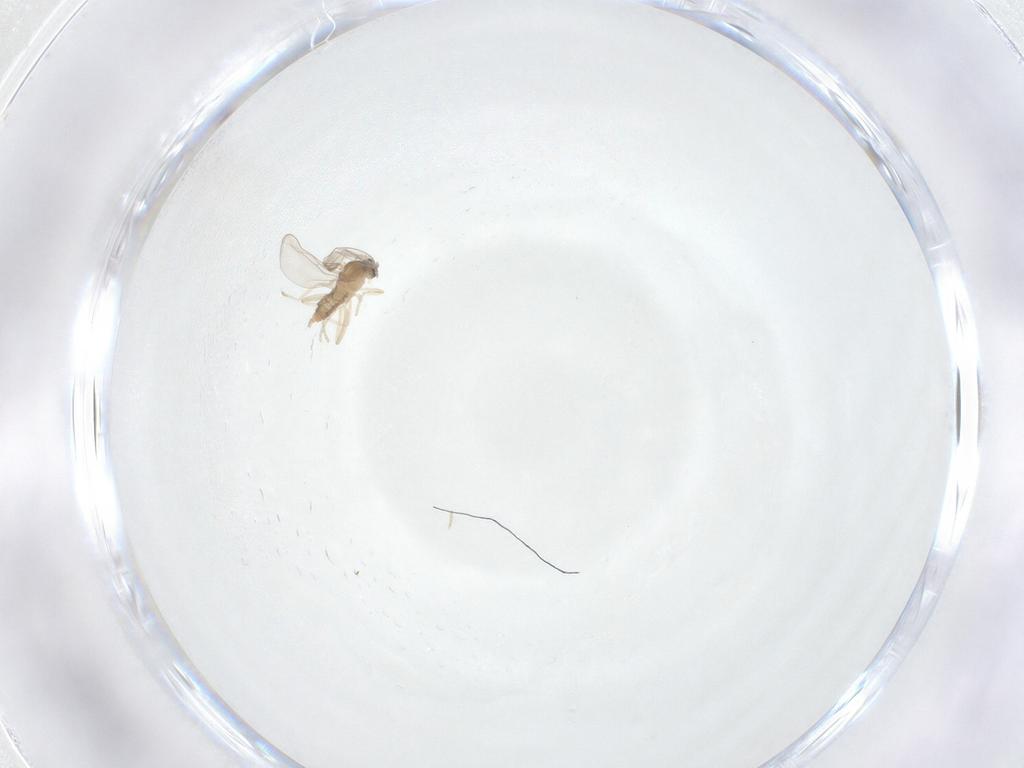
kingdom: Animalia
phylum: Arthropoda
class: Insecta
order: Diptera
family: Cecidomyiidae
